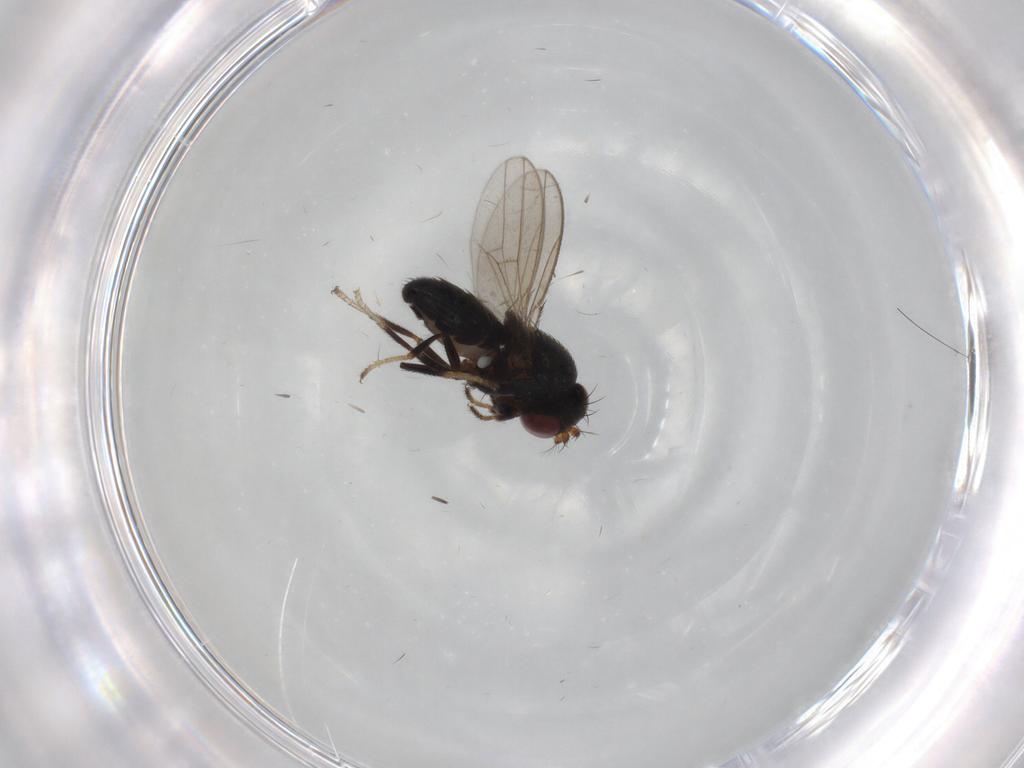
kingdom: Animalia
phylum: Arthropoda
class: Insecta
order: Diptera
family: Ephydridae
